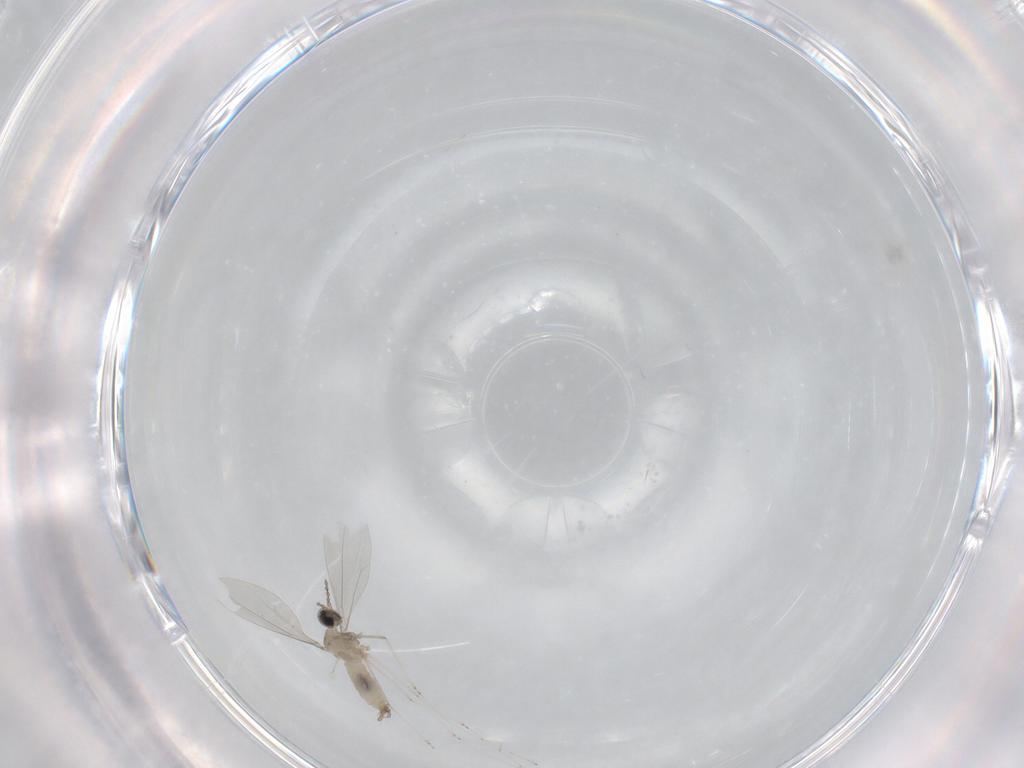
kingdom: Animalia
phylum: Arthropoda
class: Insecta
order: Diptera
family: Cecidomyiidae
